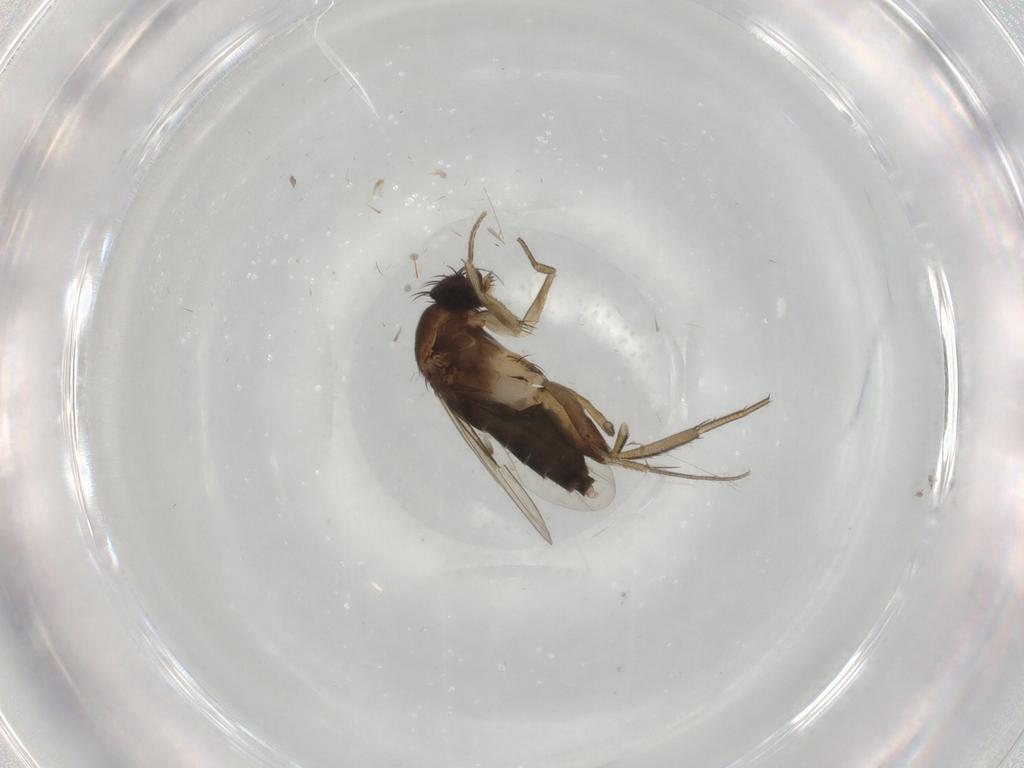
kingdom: Animalia
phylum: Arthropoda
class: Insecta
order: Diptera
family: Phoridae
